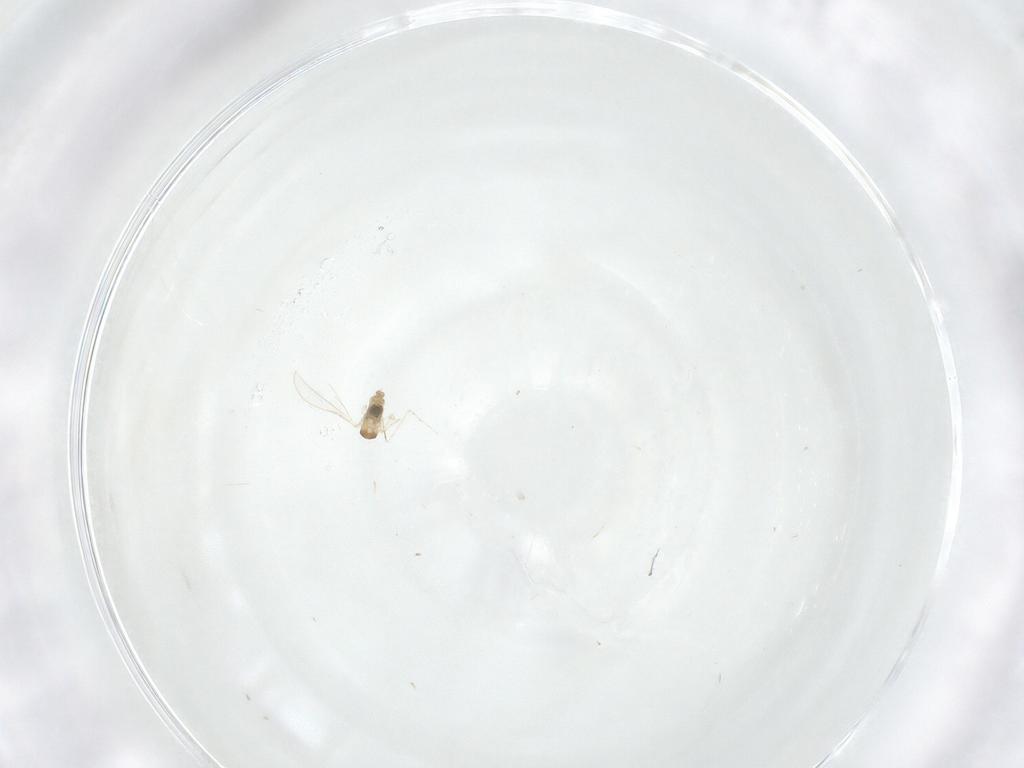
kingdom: Animalia
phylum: Arthropoda
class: Insecta
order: Diptera
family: Cecidomyiidae
